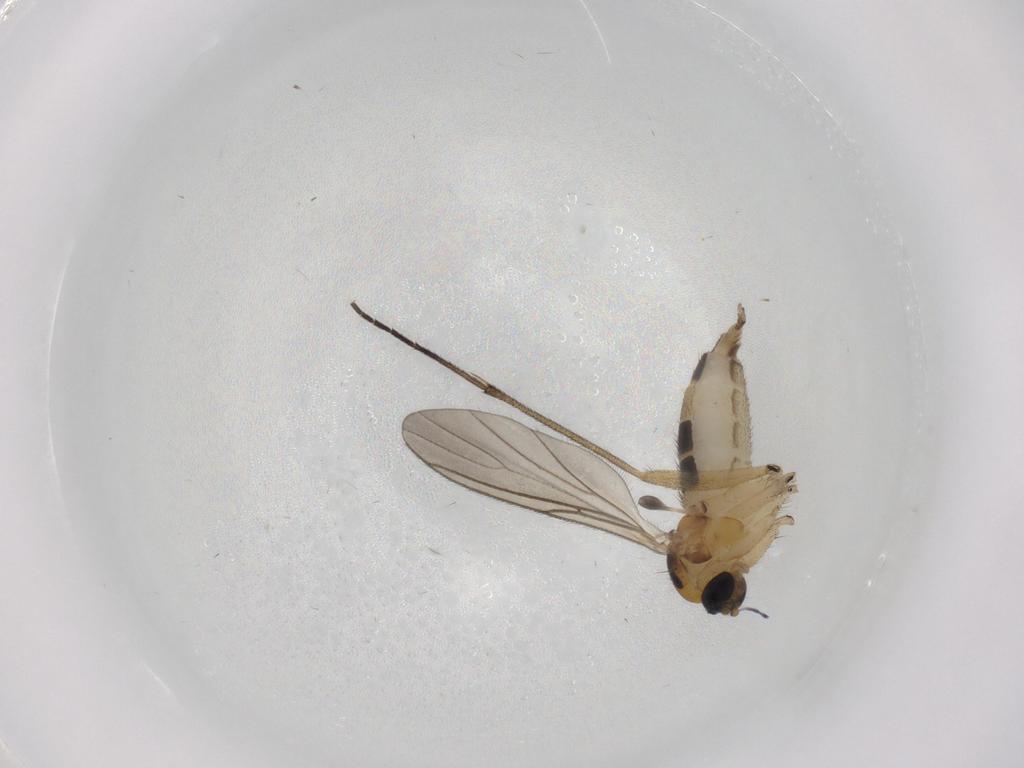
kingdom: Animalia
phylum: Arthropoda
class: Insecta
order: Diptera
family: Sciaridae
